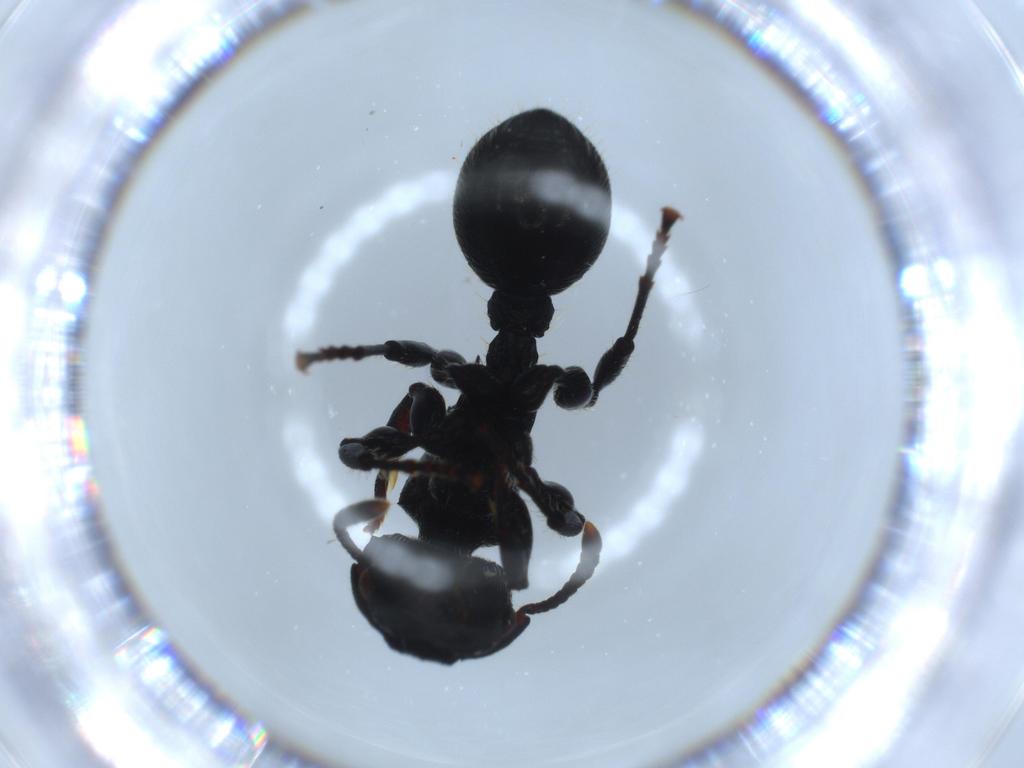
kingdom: Animalia
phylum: Arthropoda
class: Insecta
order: Hymenoptera
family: Formicidae
